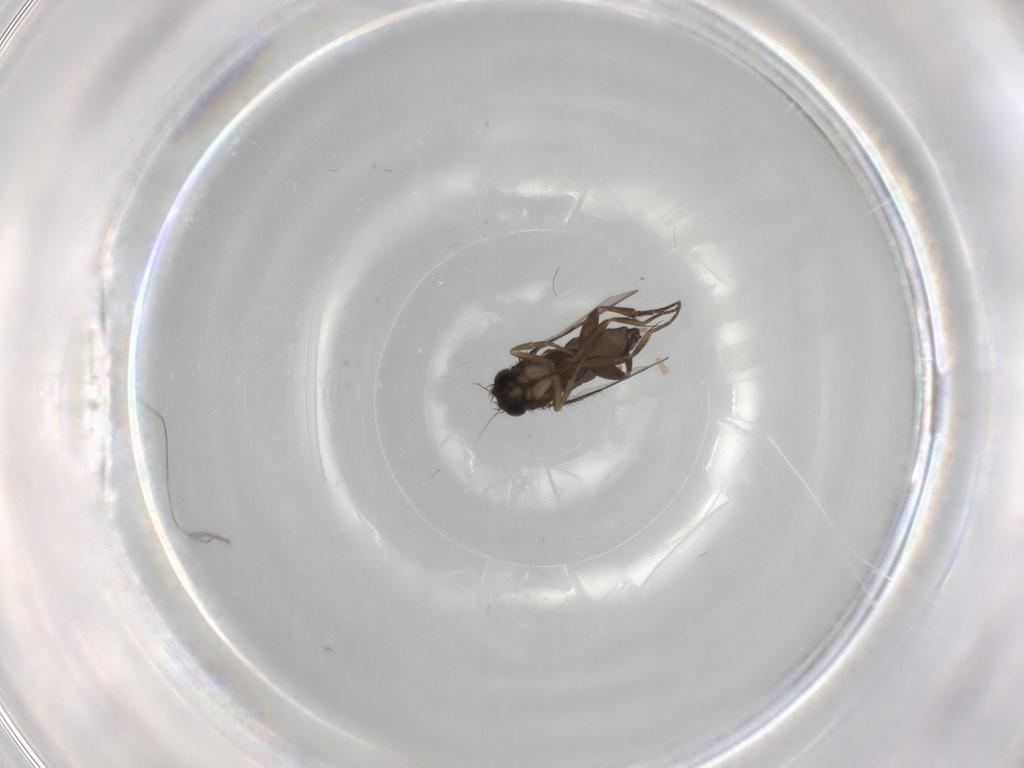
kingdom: Animalia
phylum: Arthropoda
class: Insecta
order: Diptera
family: Phoridae
